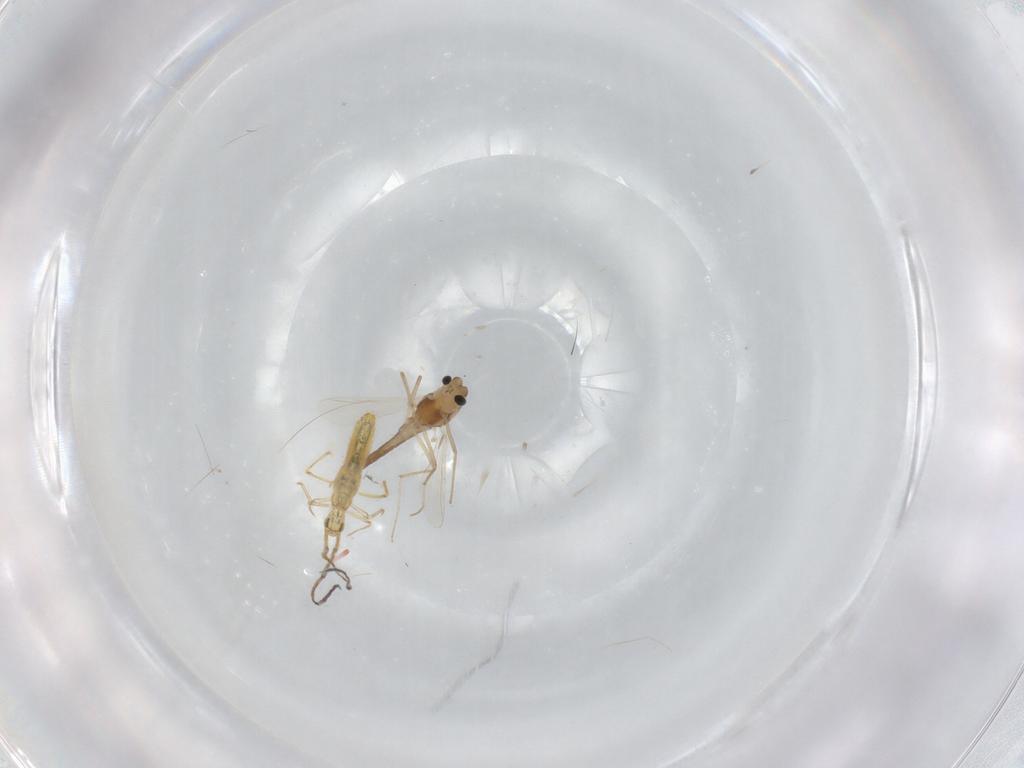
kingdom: Animalia
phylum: Arthropoda
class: Insecta
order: Diptera
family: Chironomidae
